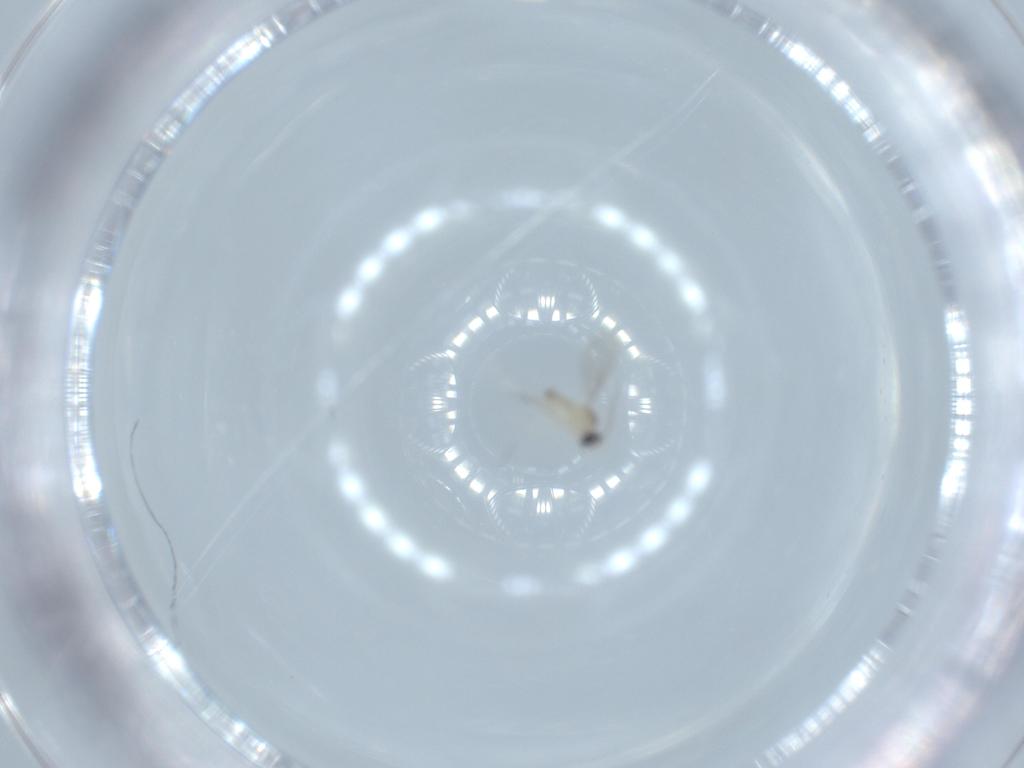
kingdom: Animalia
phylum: Arthropoda
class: Insecta
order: Diptera
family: Cecidomyiidae
